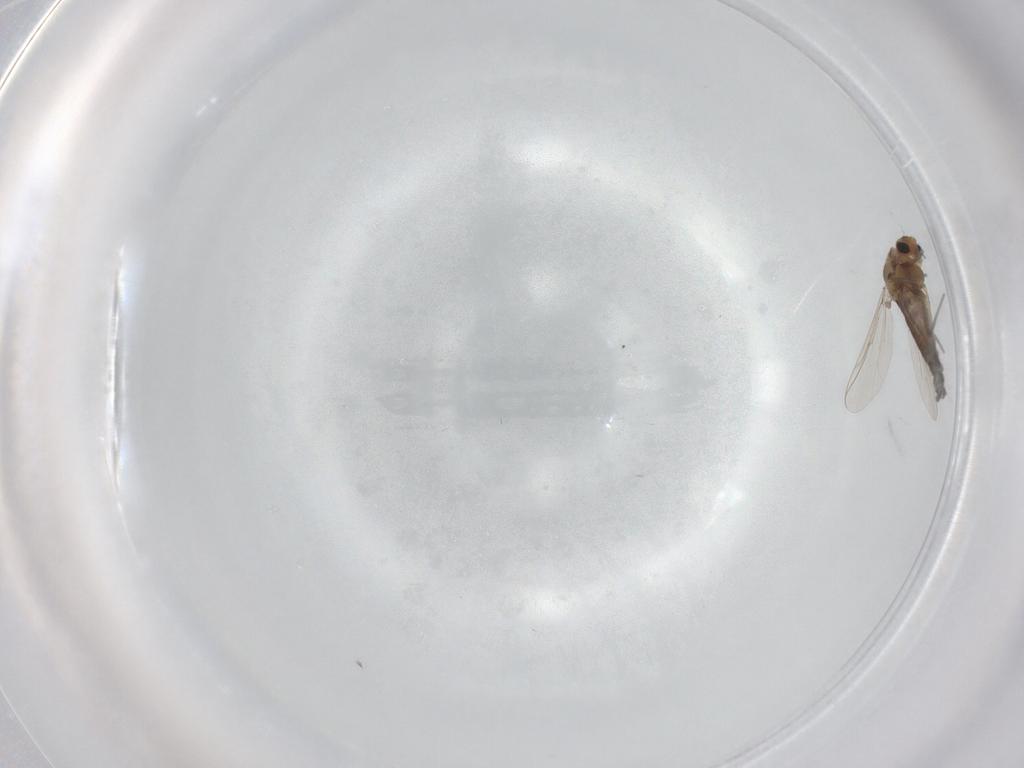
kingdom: Animalia
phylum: Arthropoda
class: Insecta
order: Diptera
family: Chironomidae
